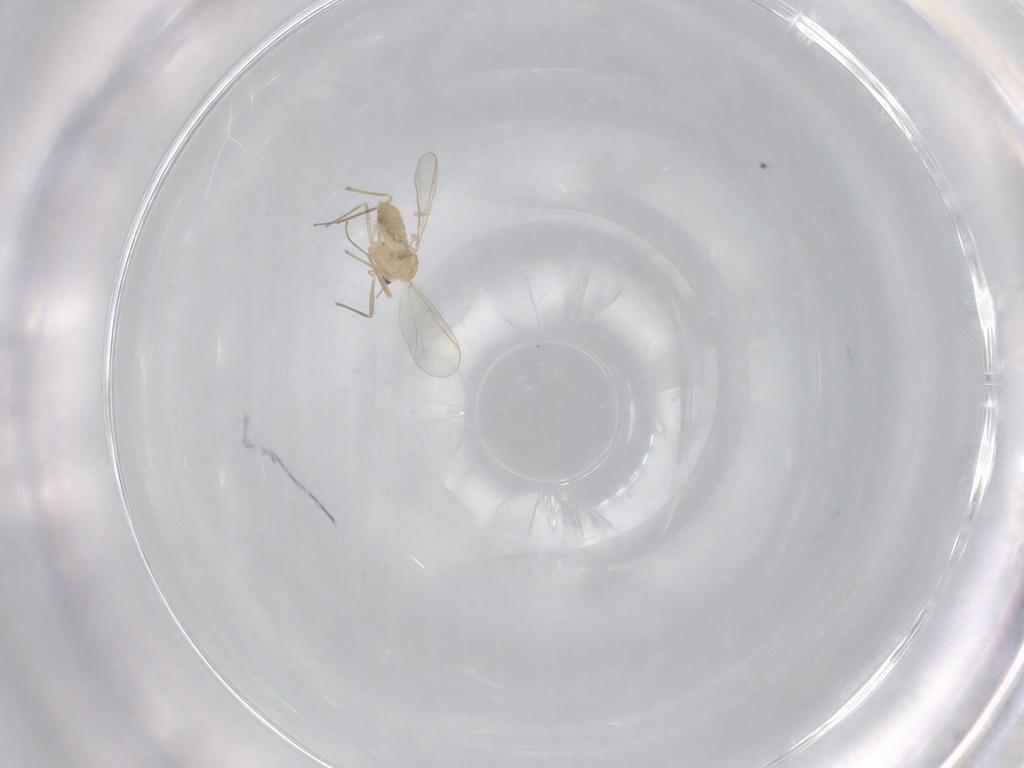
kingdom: Animalia
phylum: Arthropoda
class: Insecta
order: Diptera
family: Chironomidae
